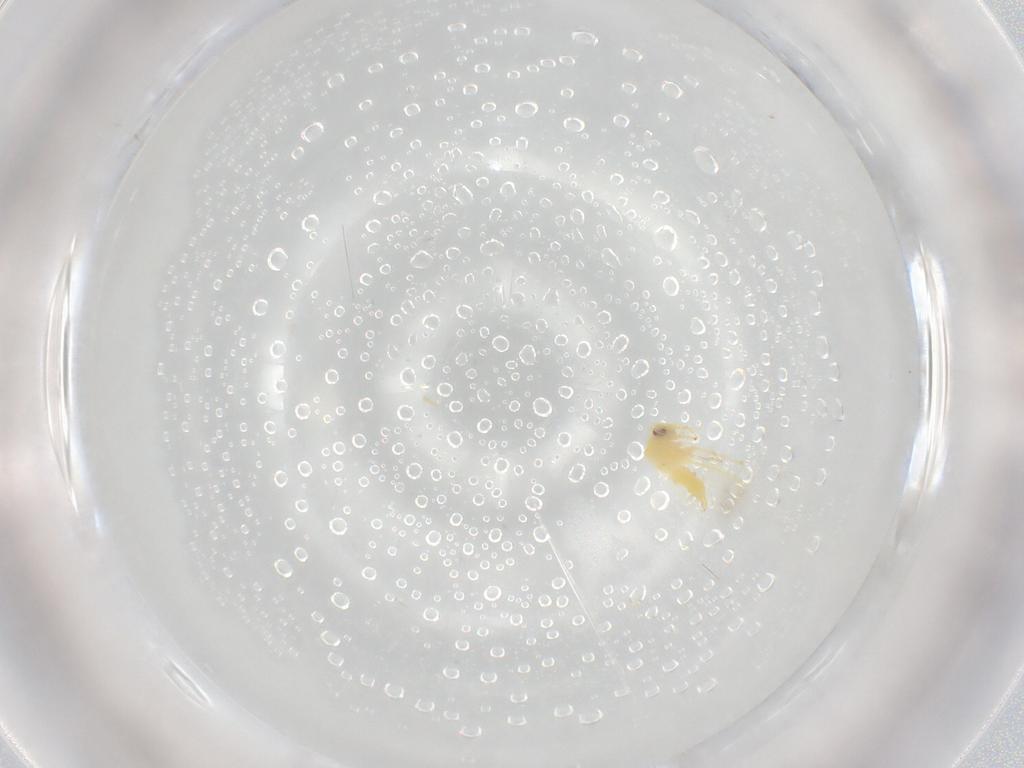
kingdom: Animalia
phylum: Arthropoda
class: Insecta
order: Hemiptera
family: Aleyrodidae
